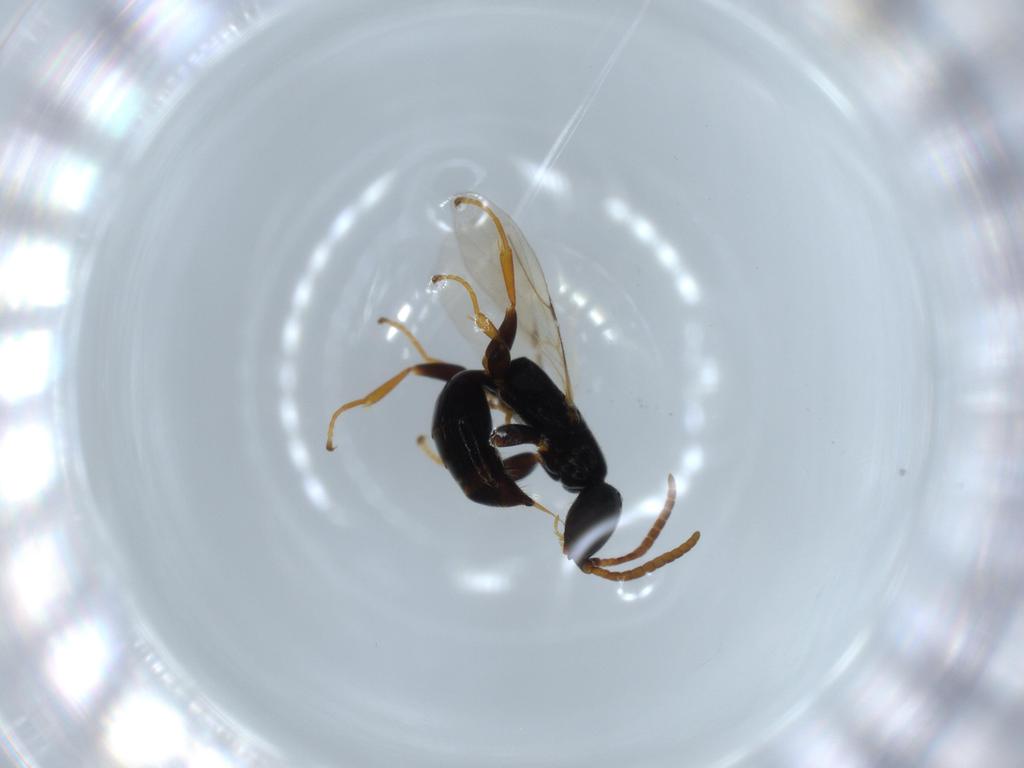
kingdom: Animalia
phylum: Arthropoda
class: Insecta
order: Hymenoptera
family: Bethylidae
